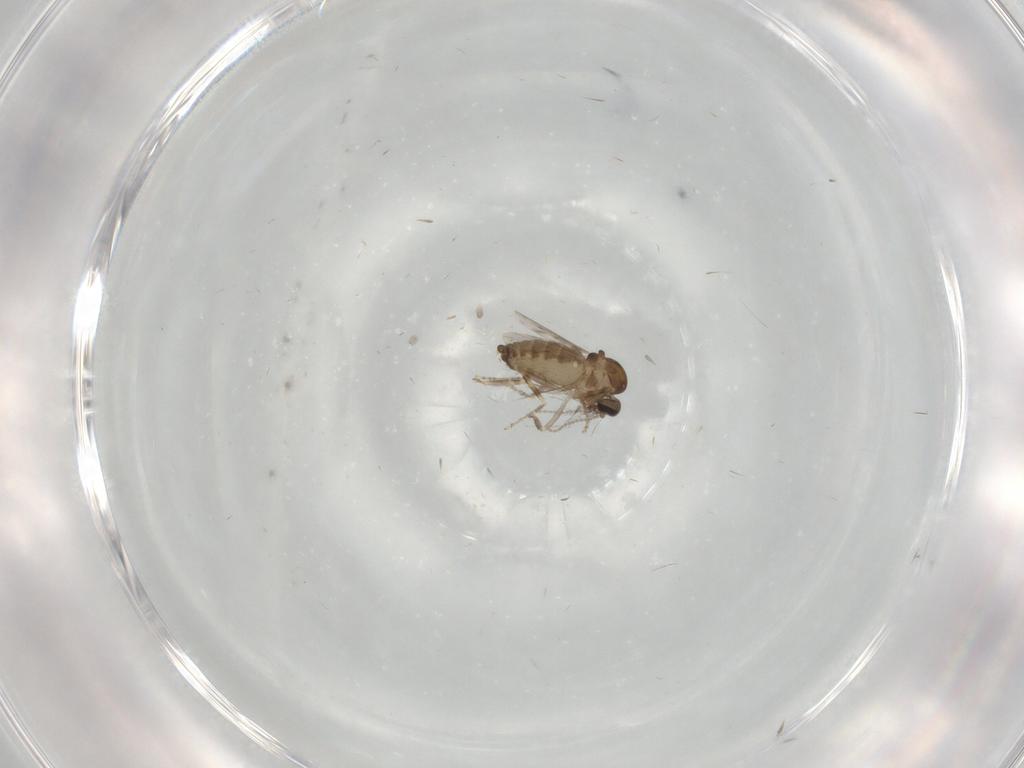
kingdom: Animalia
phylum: Arthropoda
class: Insecta
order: Diptera
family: Ceratopogonidae
